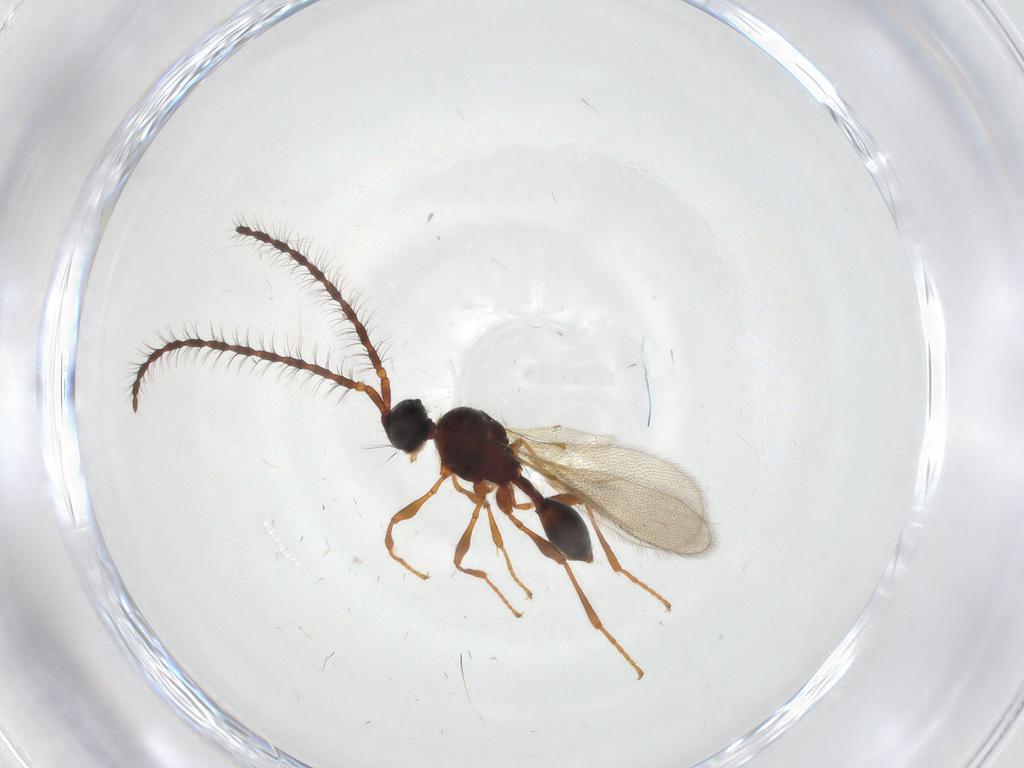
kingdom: Animalia
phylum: Arthropoda
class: Insecta
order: Hymenoptera
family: Diapriidae
